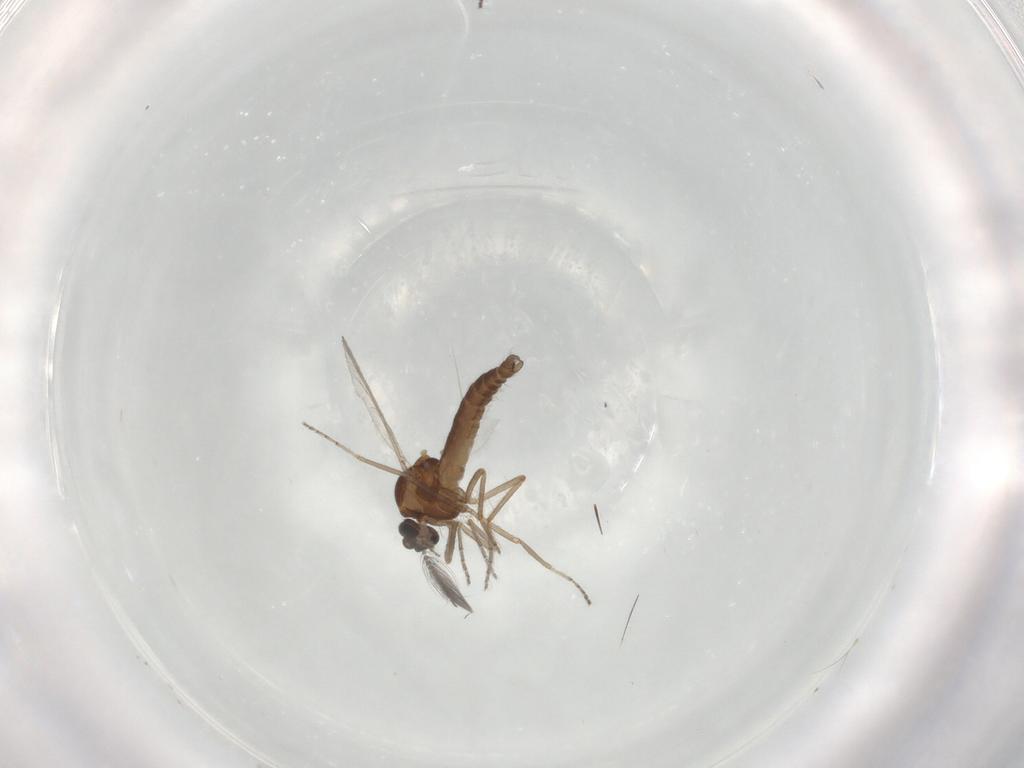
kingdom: Animalia
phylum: Arthropoda
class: Insecta
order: Diptera
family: Ceratopogonidae
